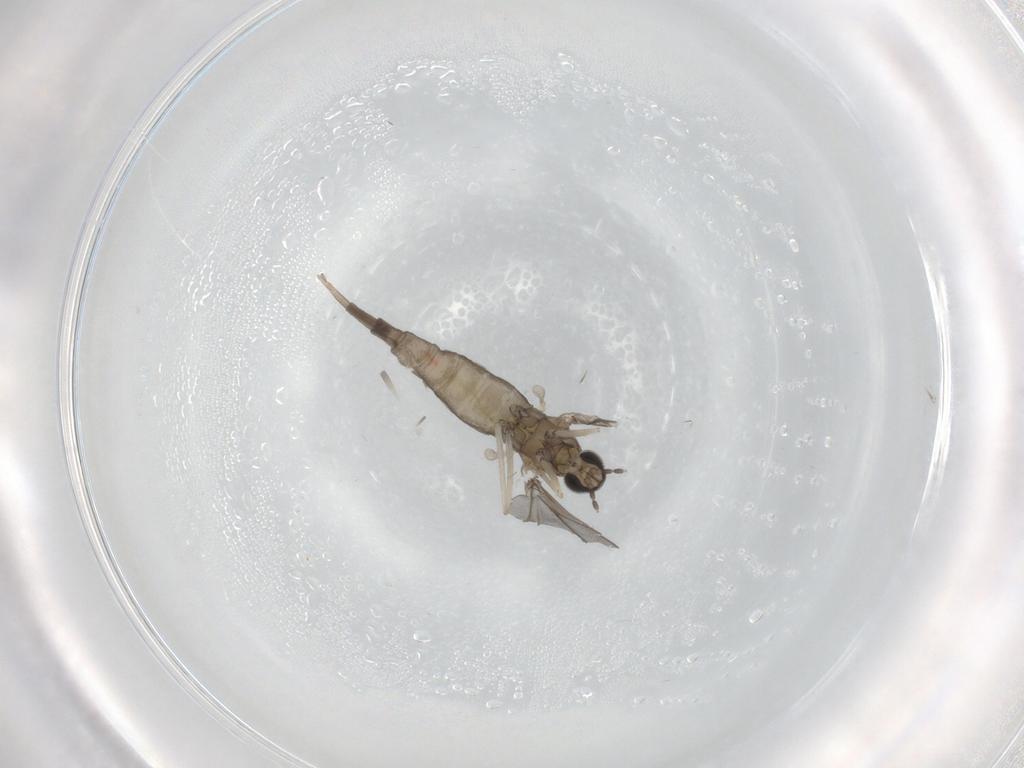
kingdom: Animalia
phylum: Arthropoda
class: Insecta
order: Diptera
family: Cecidomyiidae
